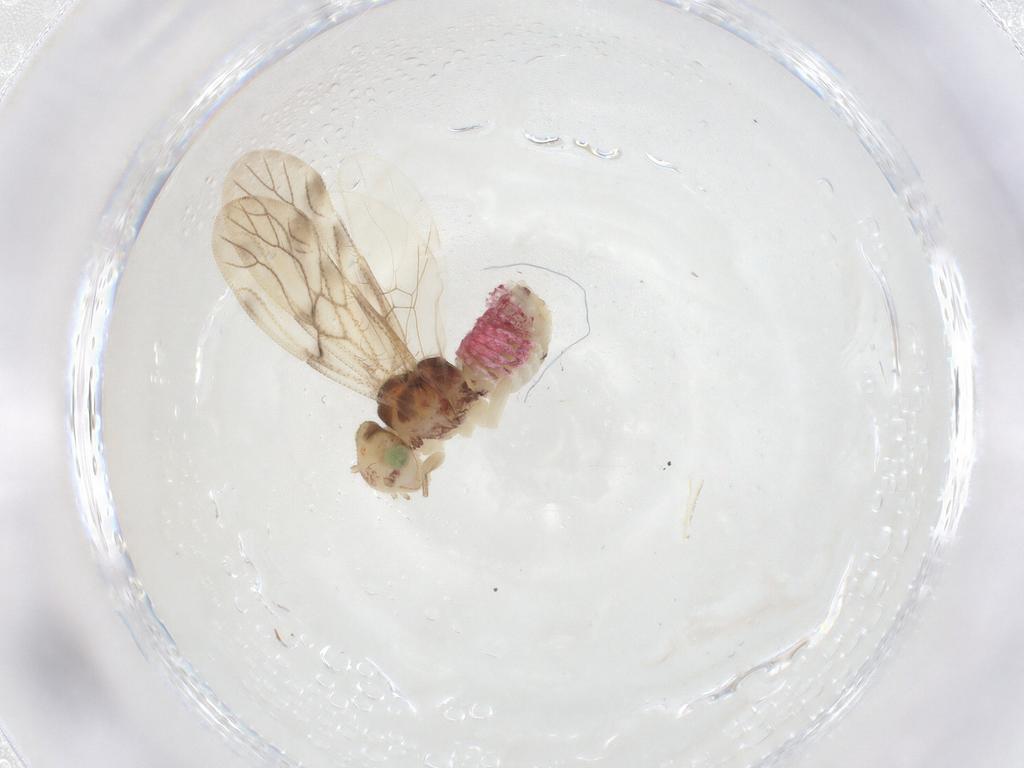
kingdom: Animalia
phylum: Arthropoda
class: Insecta
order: Psocodea
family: Pseudocaeciliidae
